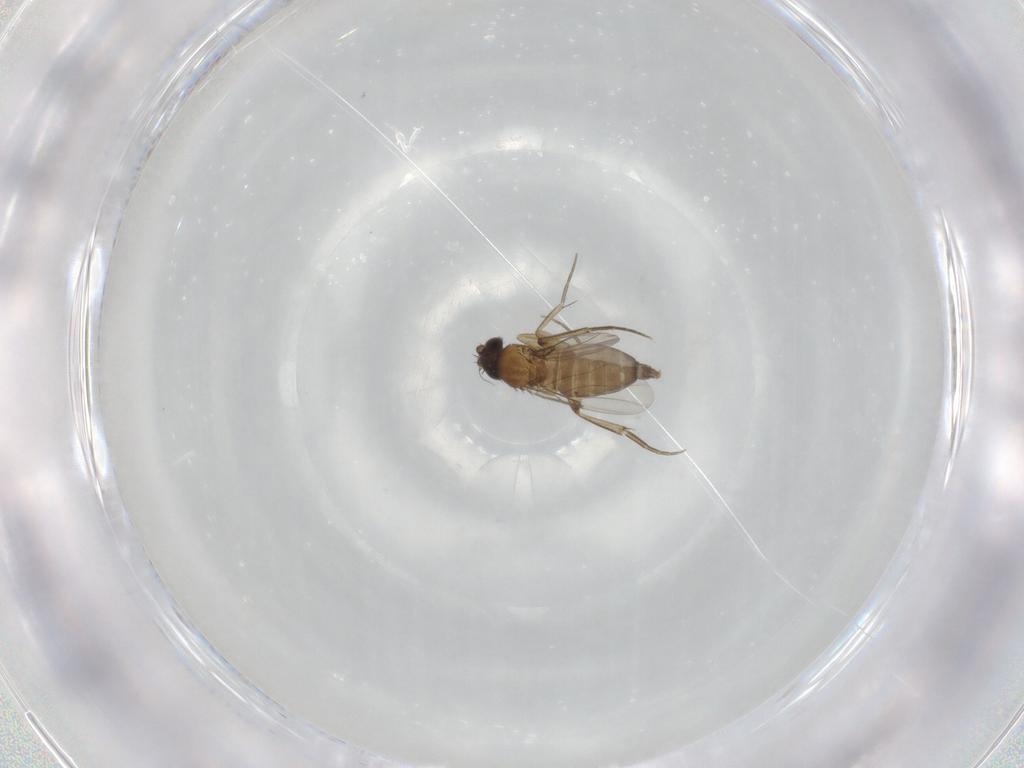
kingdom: Animalia
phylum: Arthropoda
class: Insecta
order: Diptera
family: Phoridae
